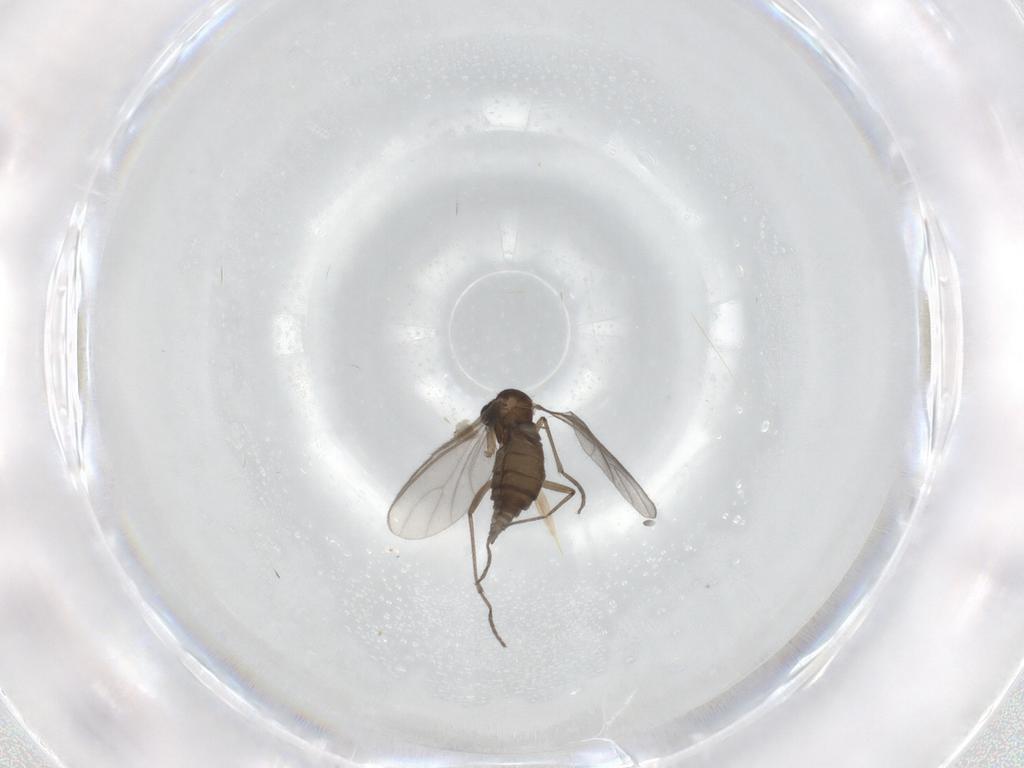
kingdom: Animalia
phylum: Arthropoda
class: Insecta
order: Diptera
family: Sciaridae
